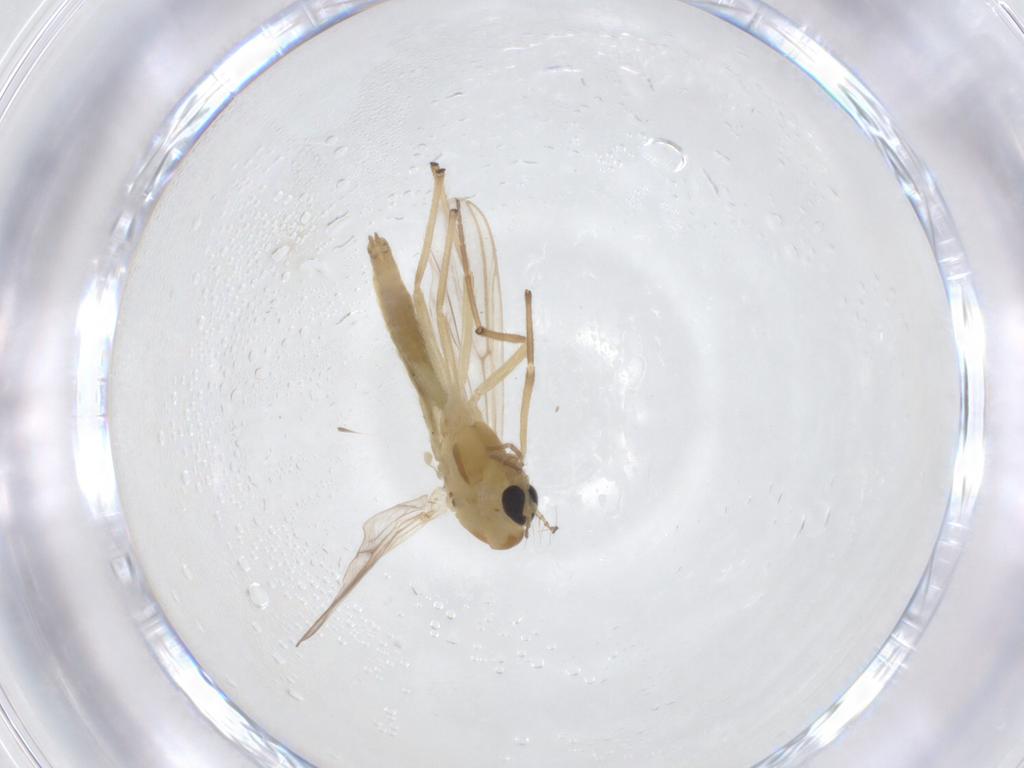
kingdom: Animalia
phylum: Arthropoda
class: Insecta
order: Diptera
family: Chironomidae
